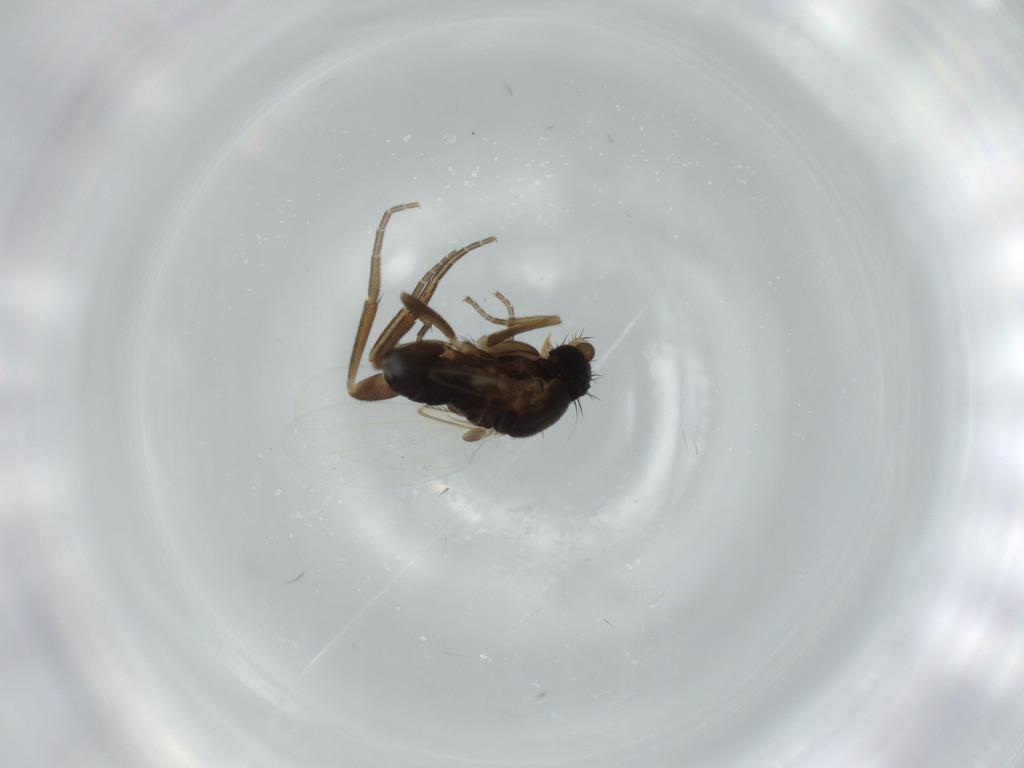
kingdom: Animalia
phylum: Arthropoda
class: Insecta
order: Diptera
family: Phoridae
